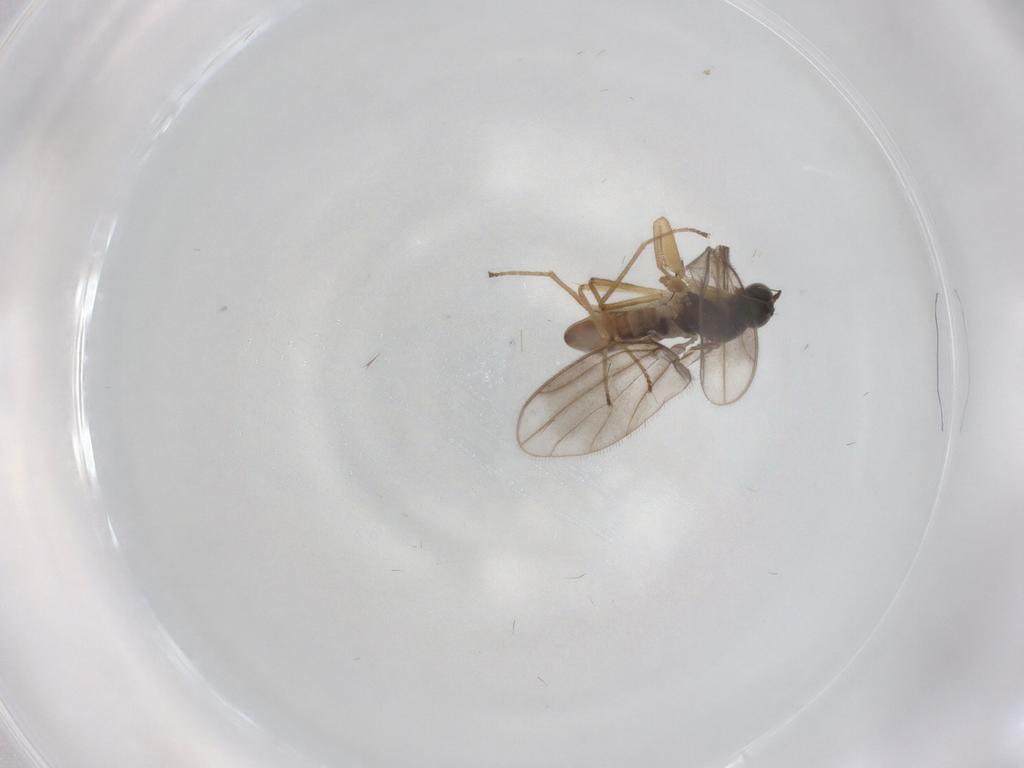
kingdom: Animalia
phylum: Arthropoda
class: Insecta
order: Diptera
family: Empididae
